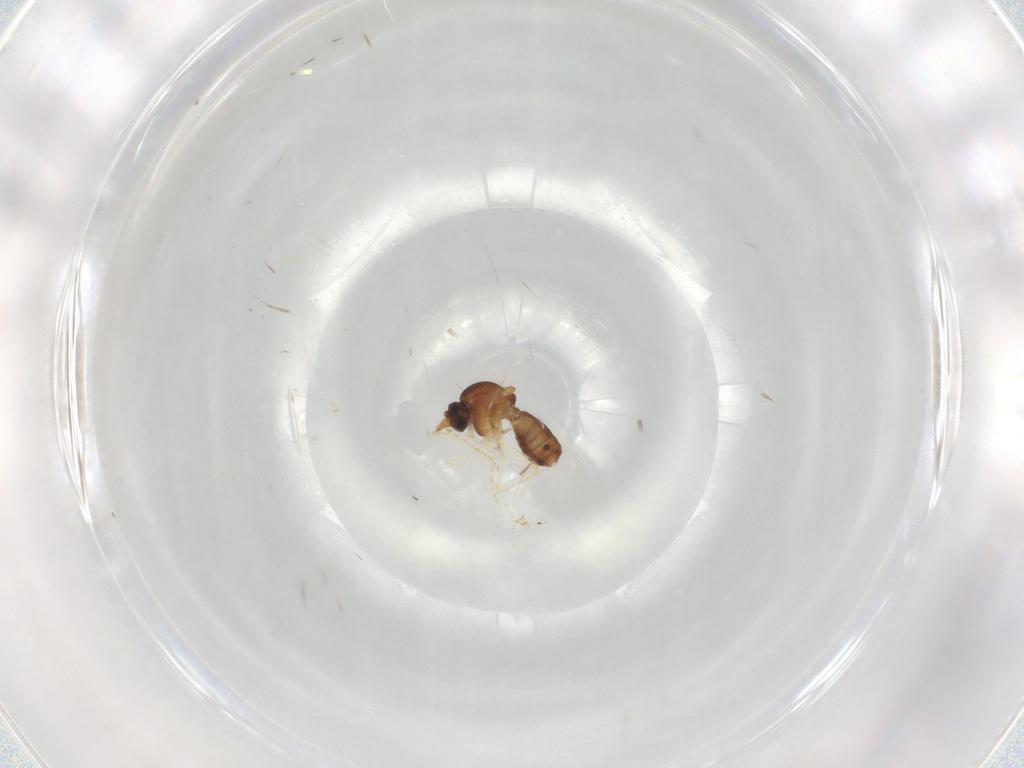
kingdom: Animalia
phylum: Arthropoda
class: Insecta
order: Diptera
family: Ceratopogonidae
